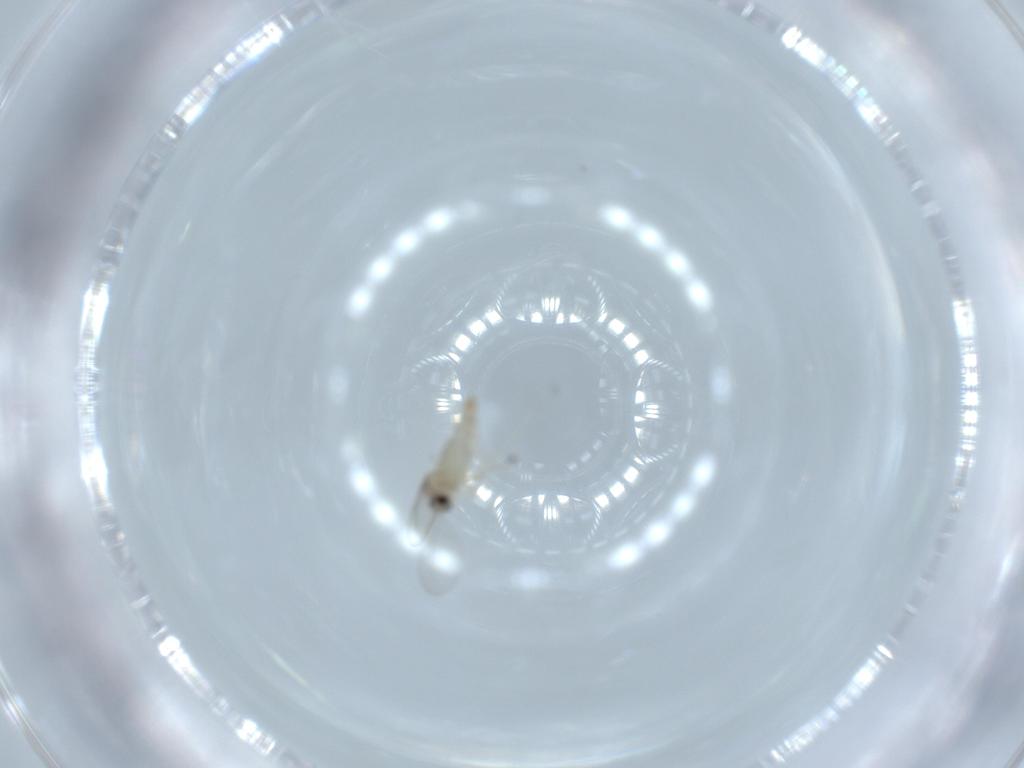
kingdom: Animalia
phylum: Arthropoda
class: Insecta
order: Diptera
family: Cecidomyiidae
